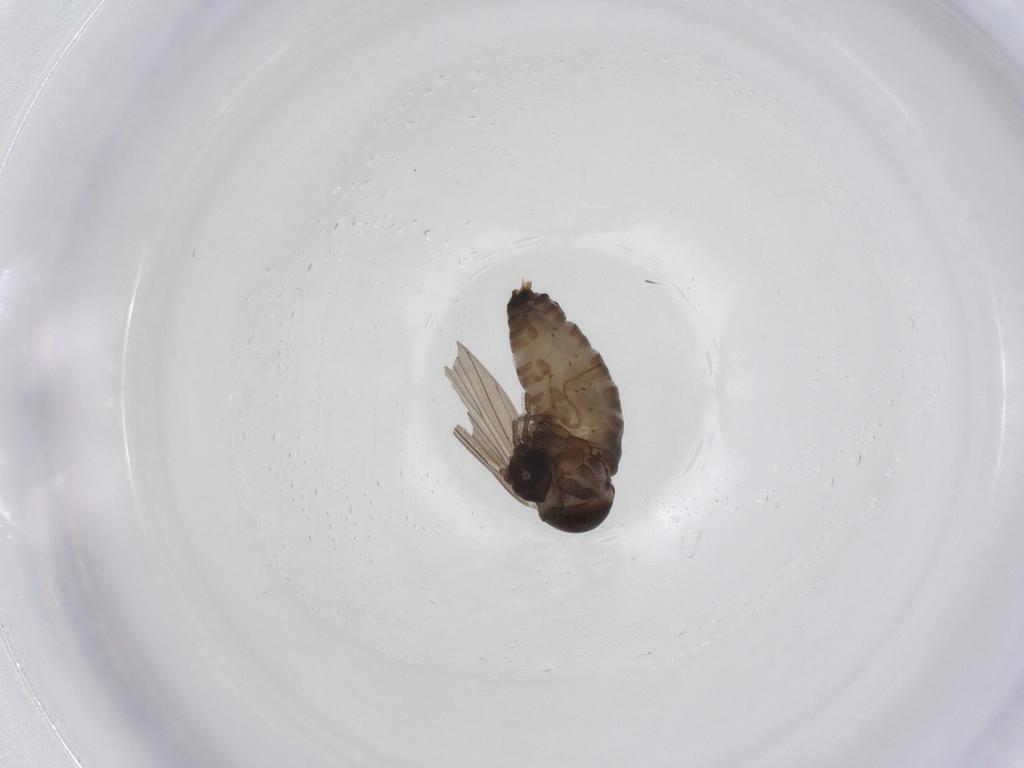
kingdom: Animalia
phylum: Arthropoda
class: Insecta
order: Diptera
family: Psychodidae
